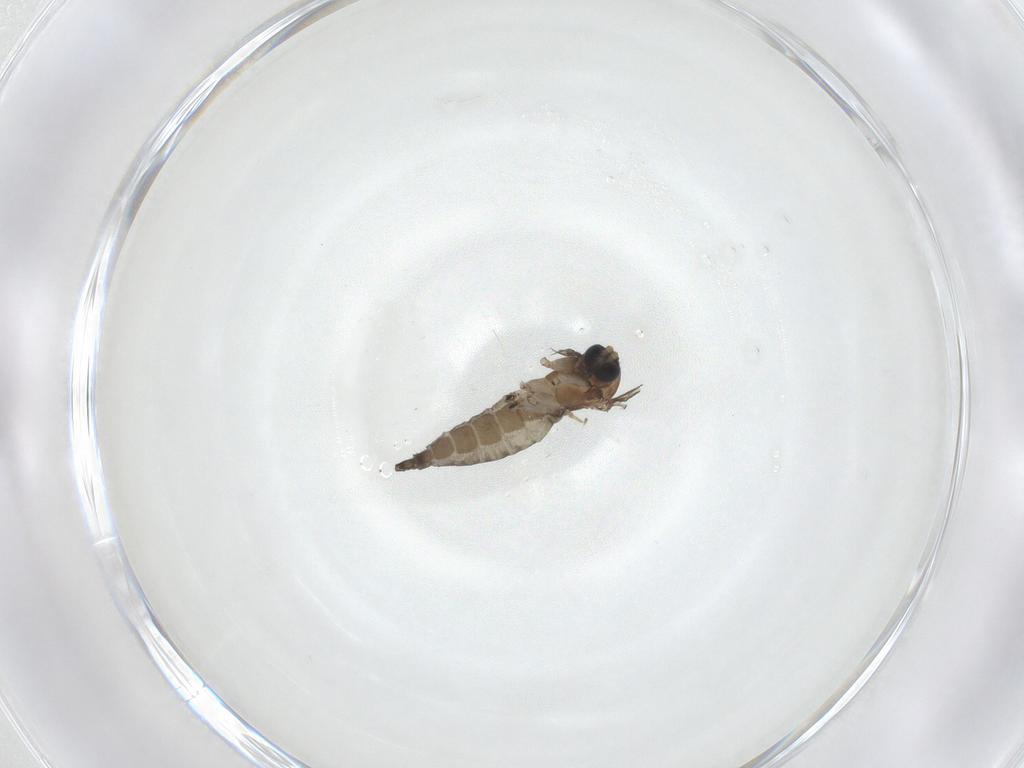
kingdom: Animalia
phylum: Arthropoda
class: Insecta
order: Diptera
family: Sciaridae
